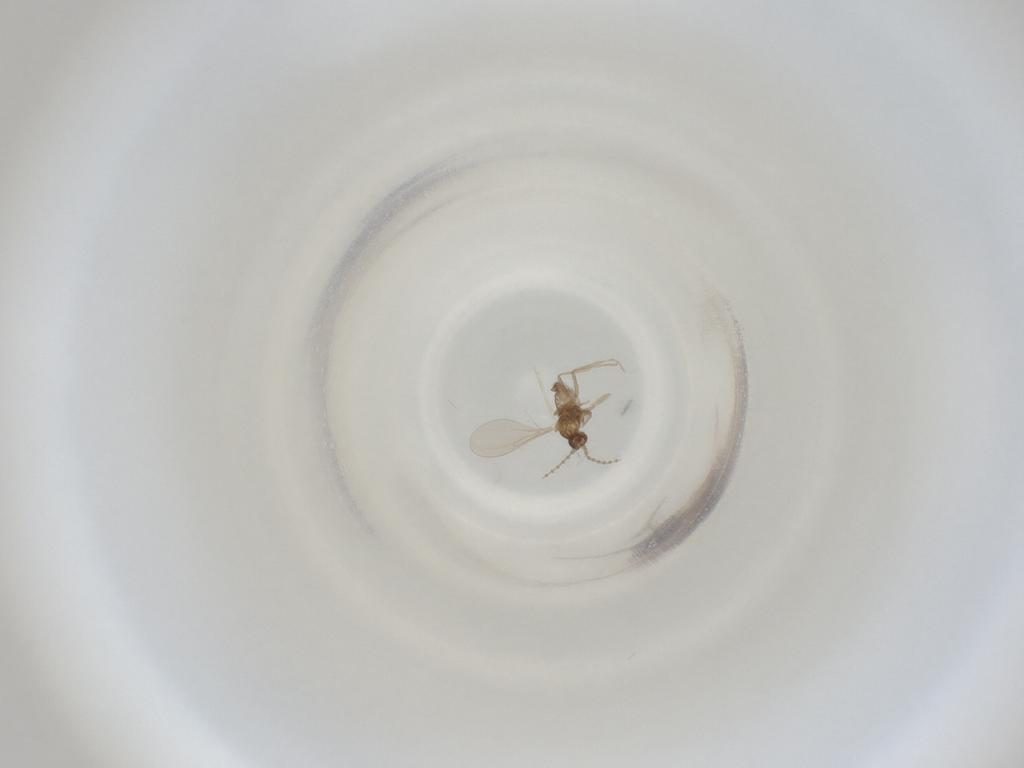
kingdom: Animalia
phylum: Arthropoda
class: Insecta
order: Diptera
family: Cecidomyiidae
